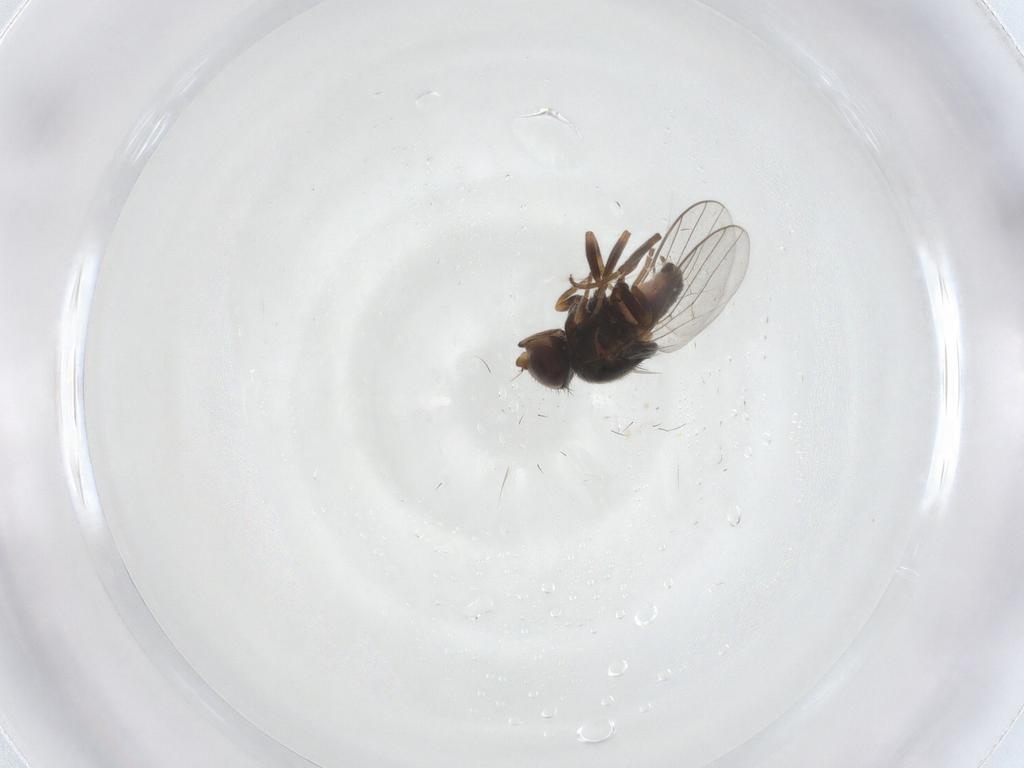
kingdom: Animalia
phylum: Arthropoda
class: Insecta
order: Diptera
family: Chloropidae
